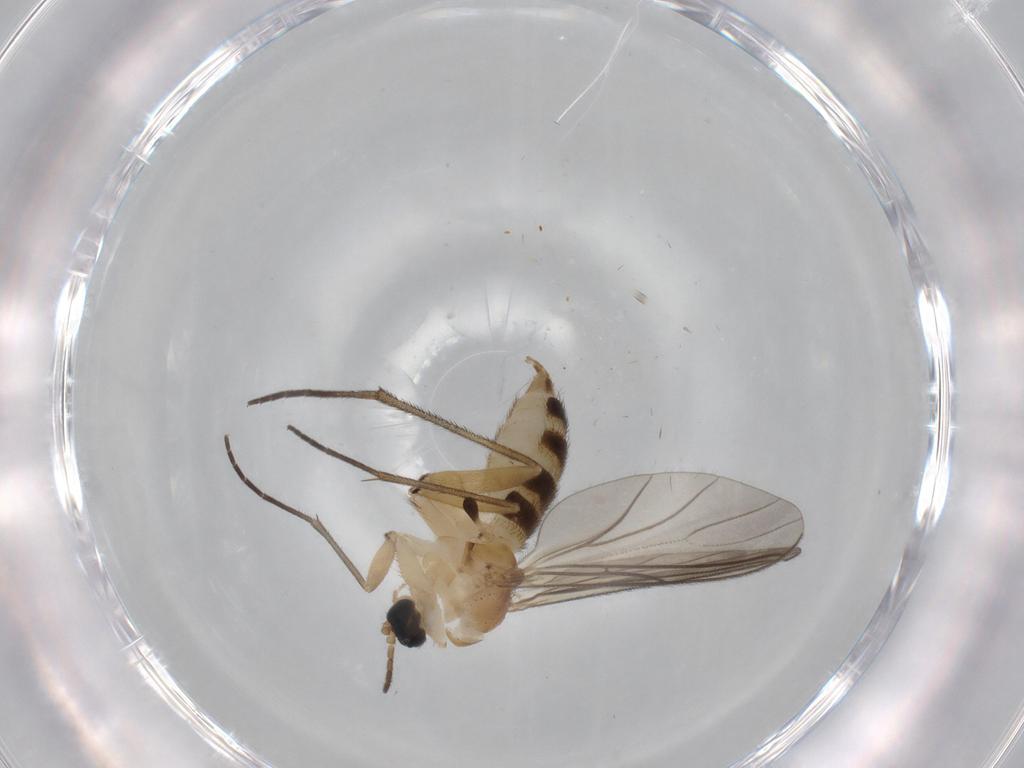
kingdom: Animalia
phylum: Arthropoda
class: Insecta
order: Diptera
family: Sciaridae
